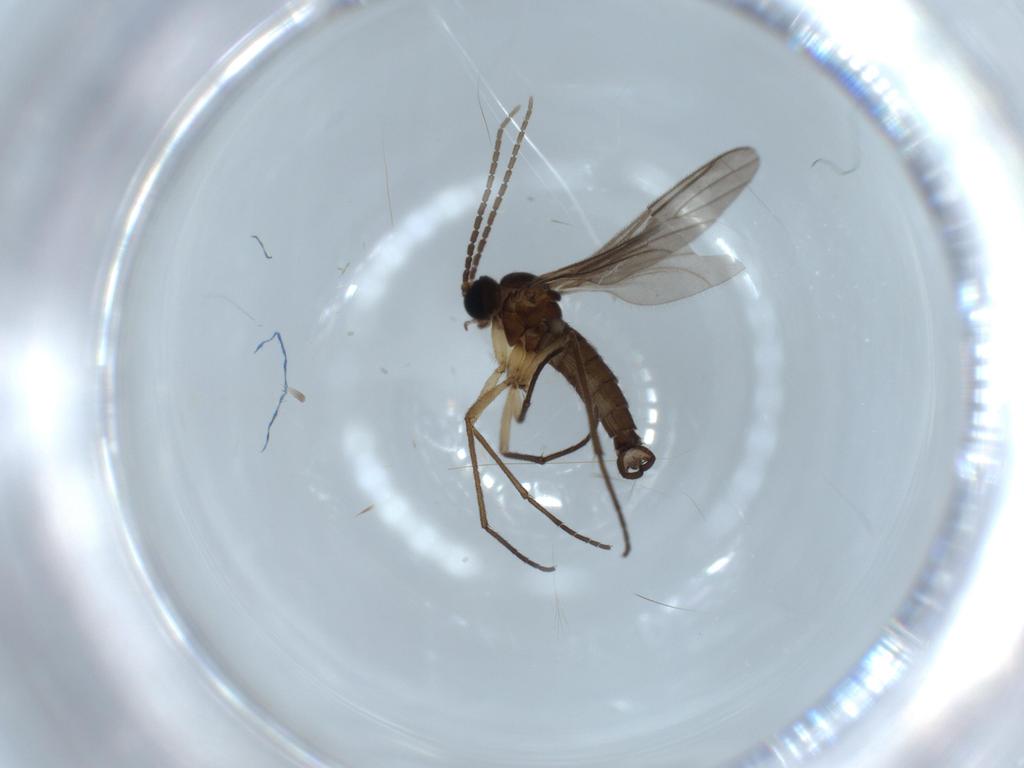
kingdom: Animalia
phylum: Arthropoda
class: Insecta
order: Diptera
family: Sciaridae
